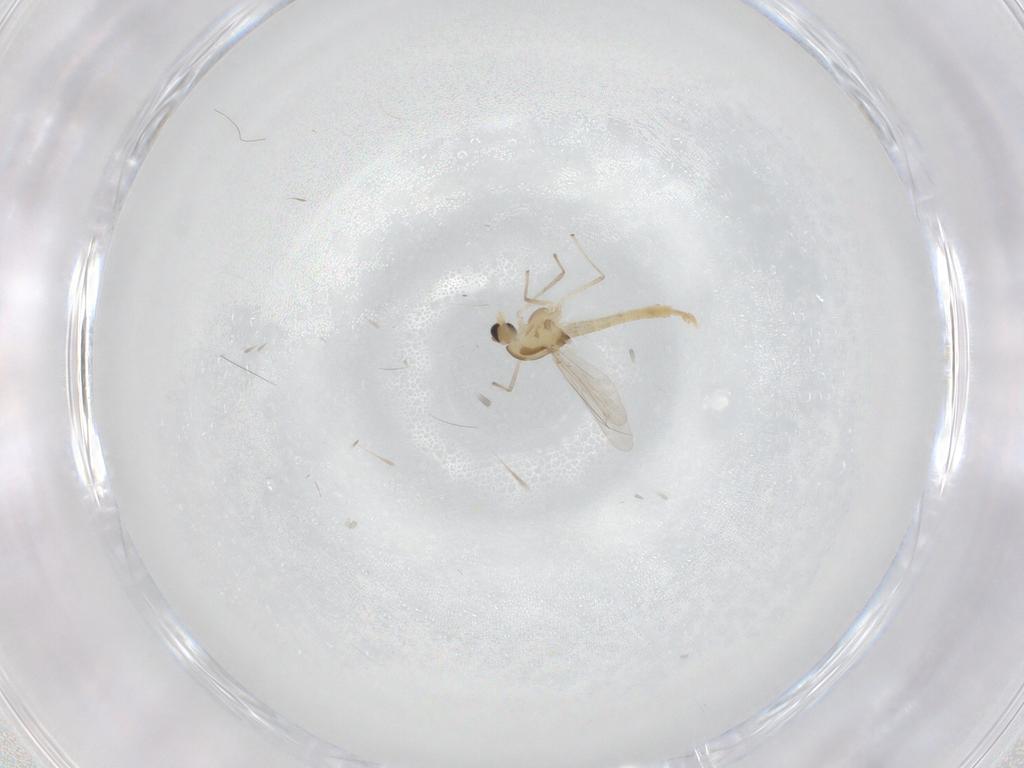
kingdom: Animalia
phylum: Arthropoda
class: Insecta
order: Diptera
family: Chironomidae
